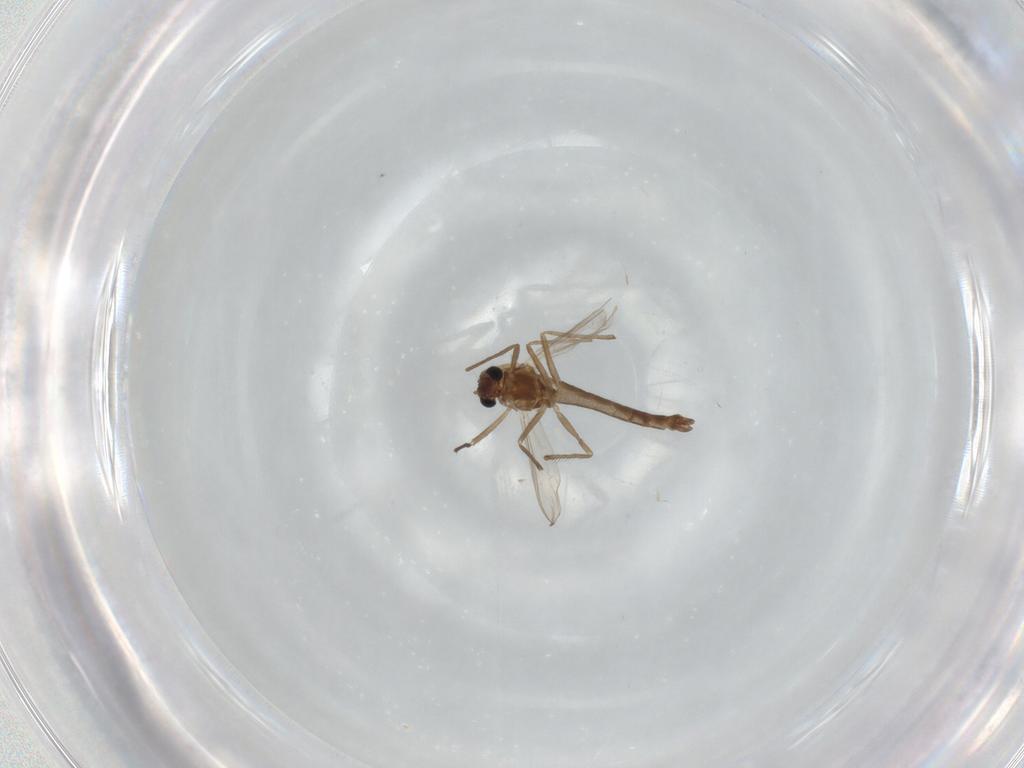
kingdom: Animalia
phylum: Arthropoda
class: Insecta
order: Diptera
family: Chironomidae
